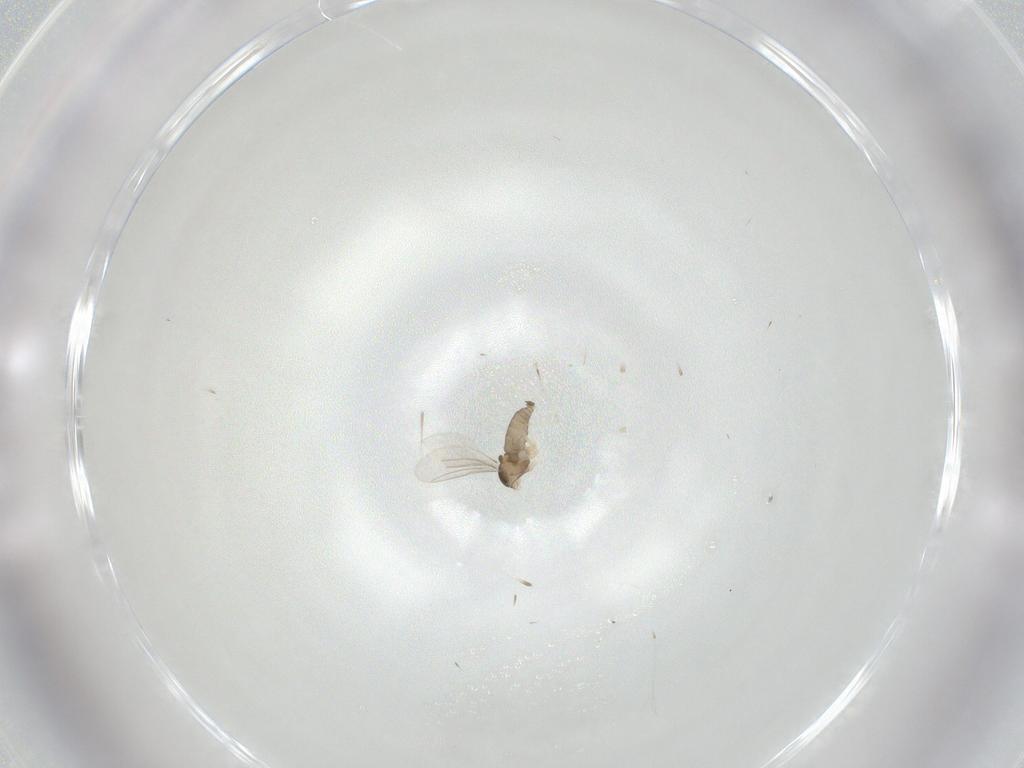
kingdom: Animalia
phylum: Arthropoda
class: Insecta
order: Diptera
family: Cecidomyiidae
